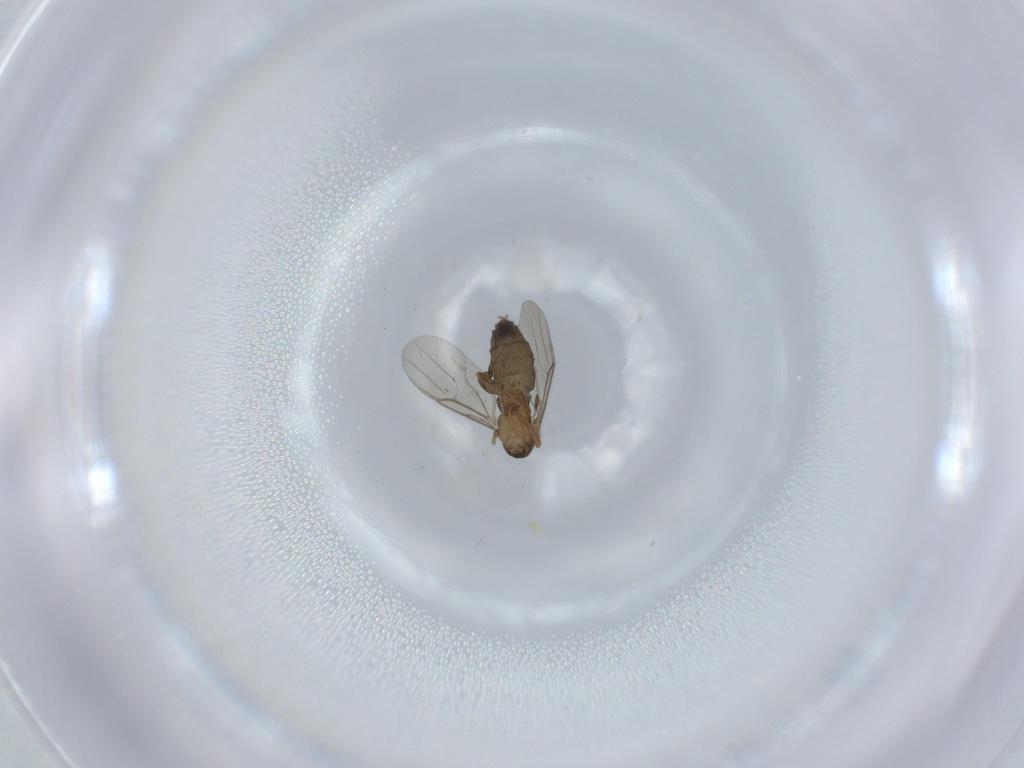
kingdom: Animalia
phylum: Arthropoda
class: Insecta
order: Diptera
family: Phoridae
